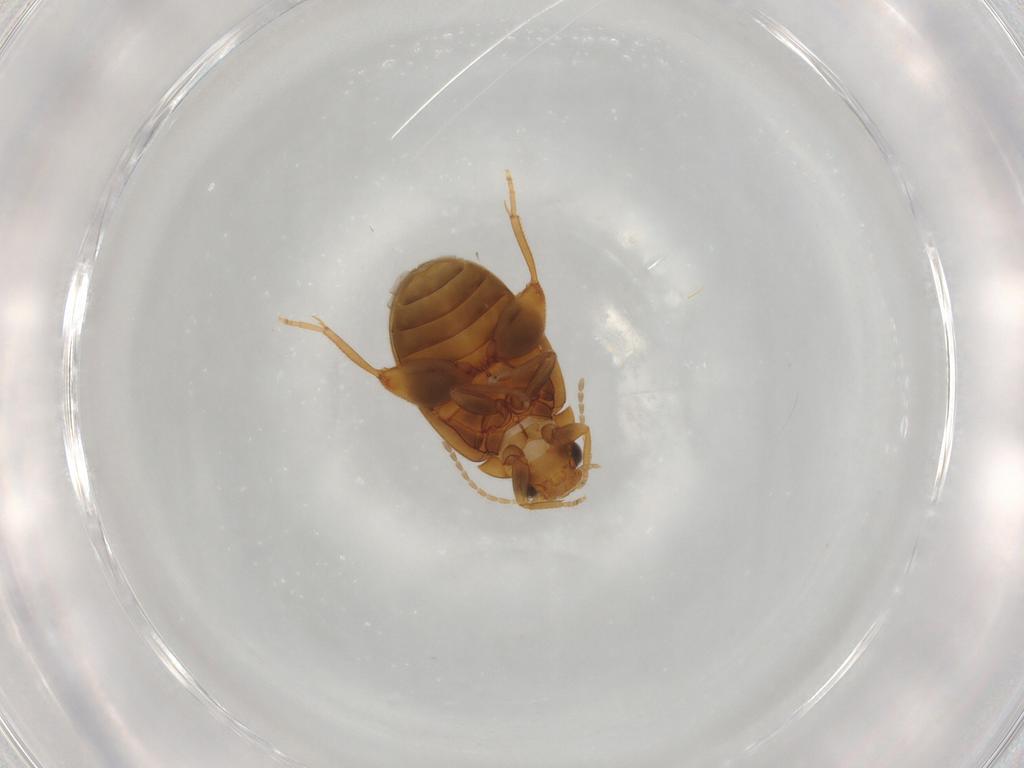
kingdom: Animalia
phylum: Arthropoda
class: Insecta
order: Coleoptera
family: Scirtidae
